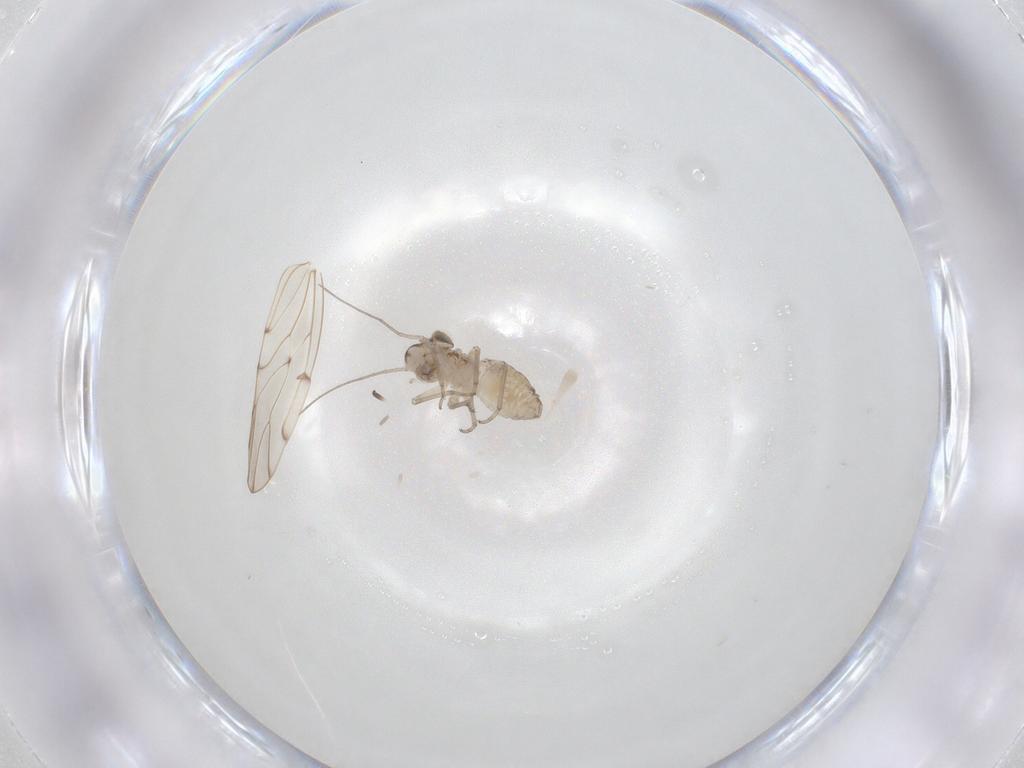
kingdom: Animalia
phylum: Arthropoda
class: Insecta
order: Psocodea
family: Psocidae
